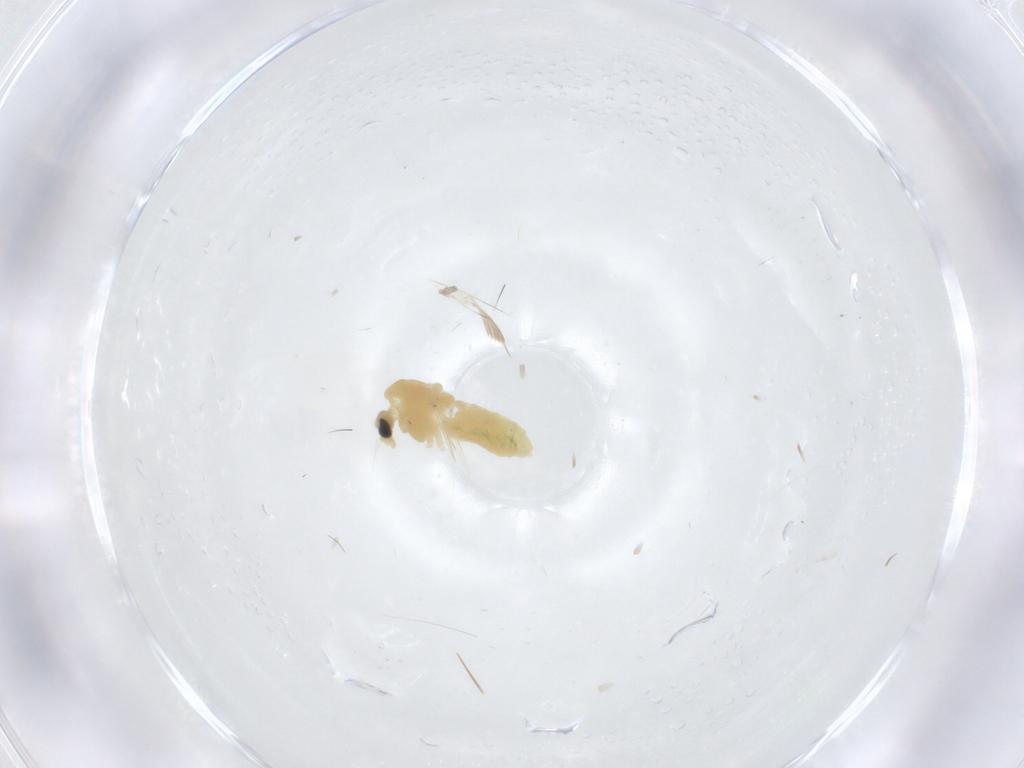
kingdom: Animalia
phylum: Arthropoda
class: Insecta
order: Diptera
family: Chironomidae
